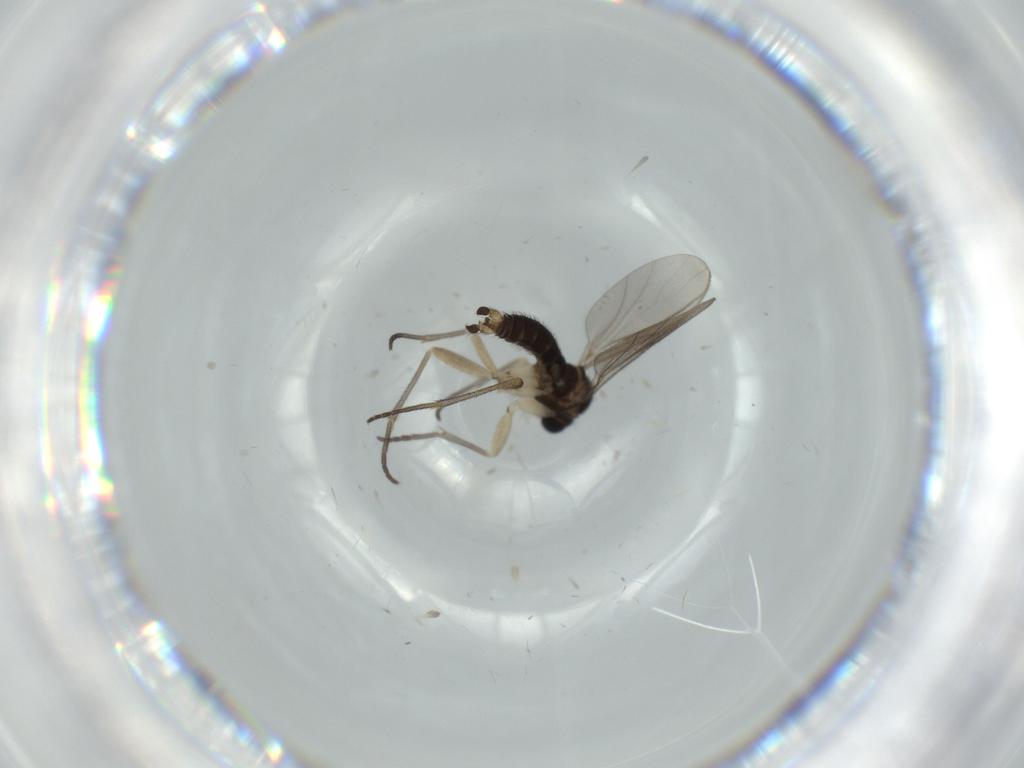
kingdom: Animalia
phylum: Arthropoda
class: Insecta
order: Diptera
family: Sciaridae
